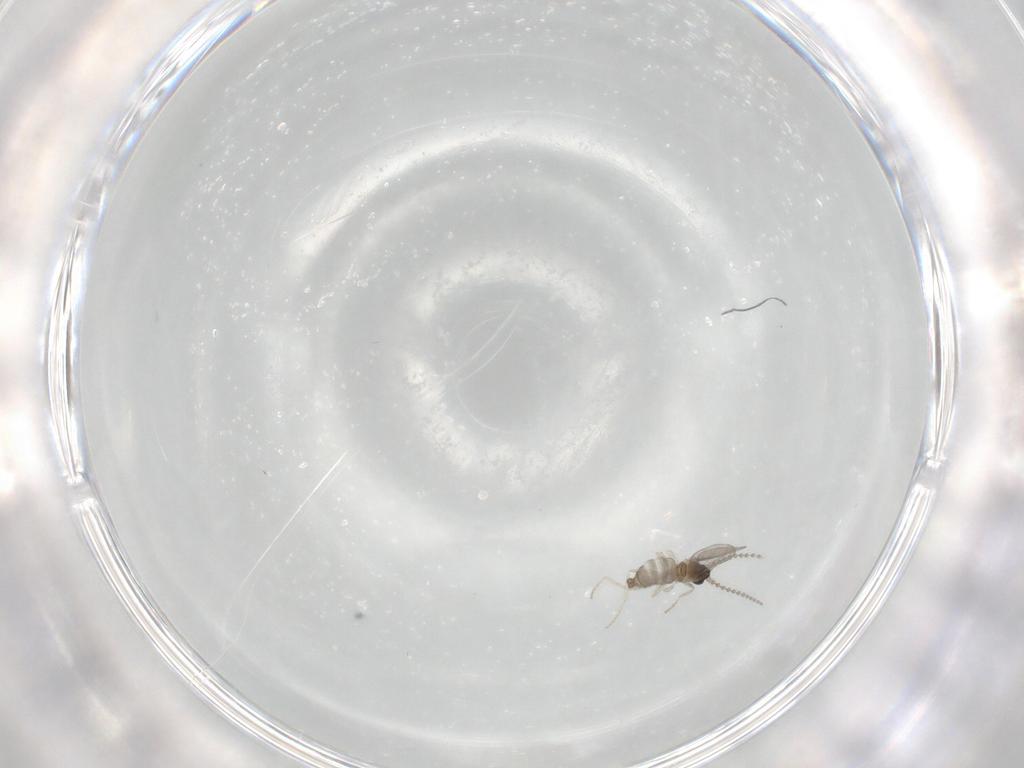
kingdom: Animalia
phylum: Arthropoda
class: Insecta
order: Diptera
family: Cecidomyiidae
